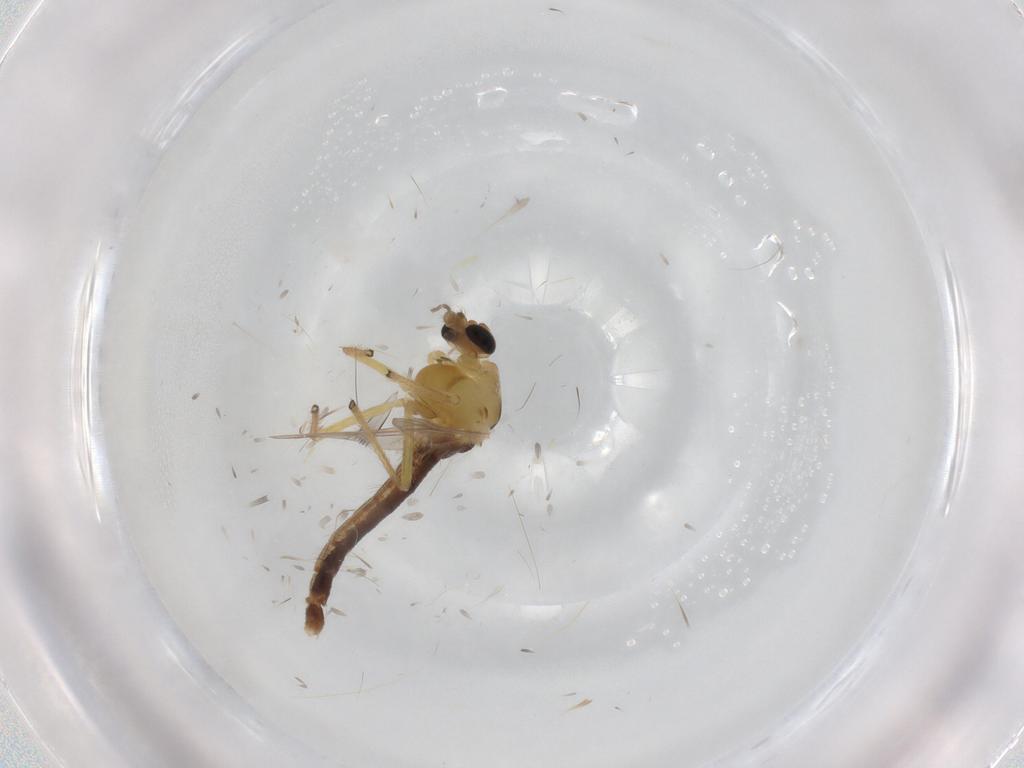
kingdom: Animalia
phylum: Arthropoda
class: Insecta
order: Diptera
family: Chironomidae
